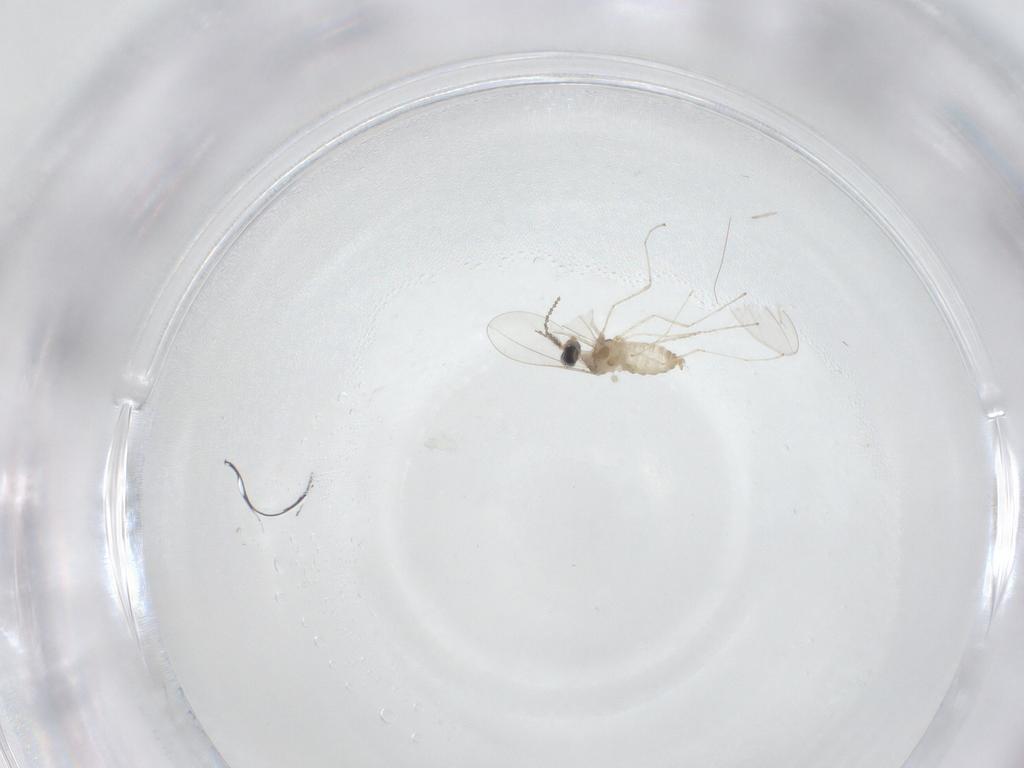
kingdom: Animalia
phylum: Arthropoda
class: Insecta
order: Diptera
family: Cecidomyiidae
